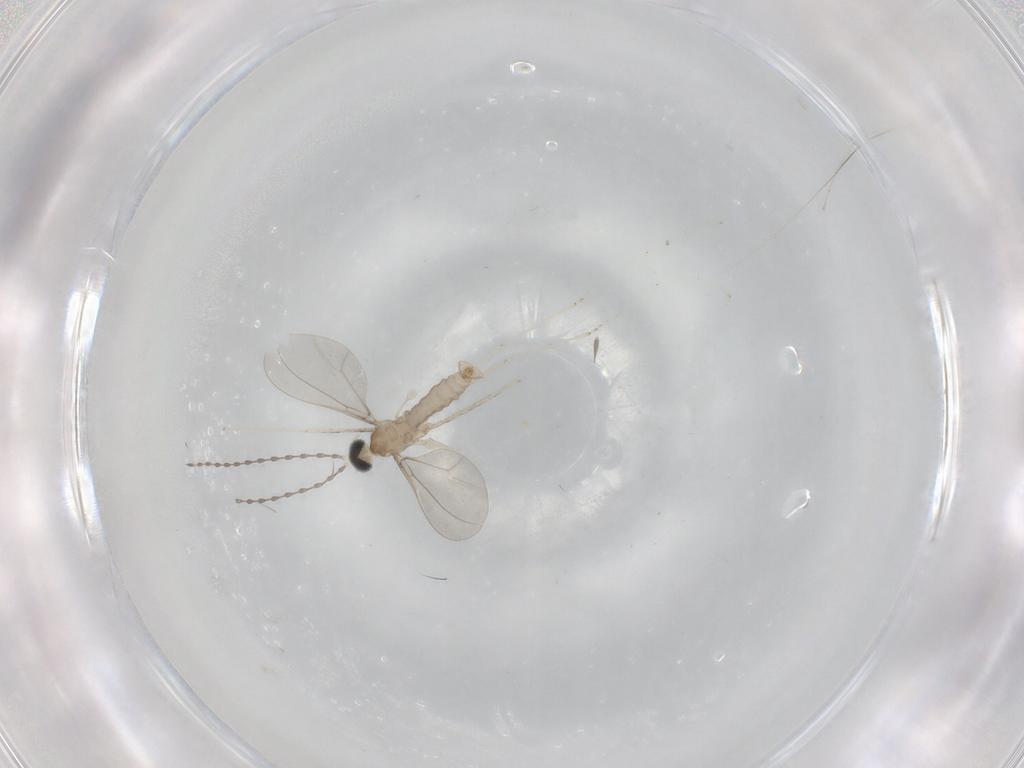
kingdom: Animalia
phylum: Arthropoda
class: Insecta
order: Diptera
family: Cecidomyiidae
